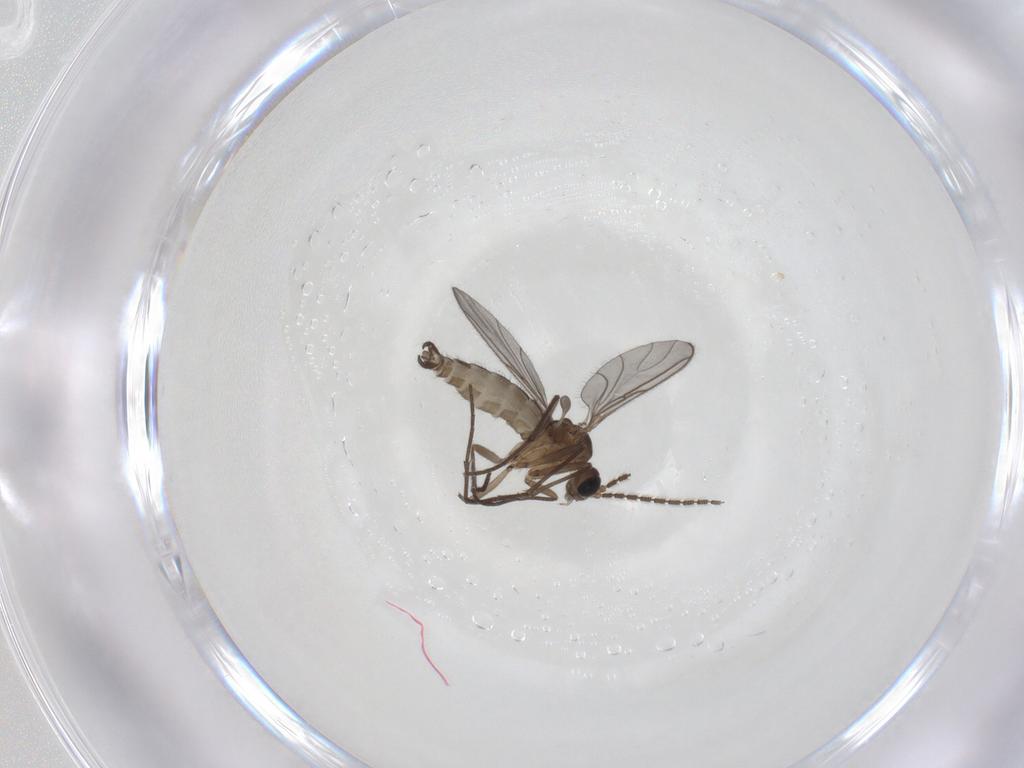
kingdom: Animalia
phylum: Arthropoda
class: Insecta
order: Diptera
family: Sciaridae
